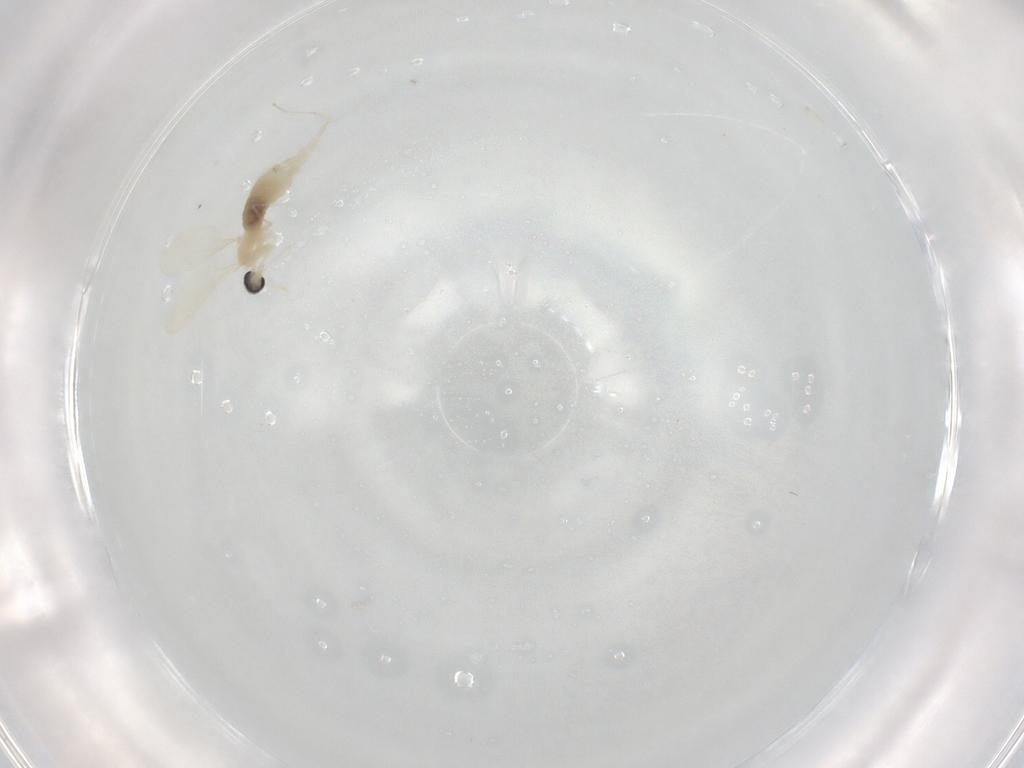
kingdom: Animalia
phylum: Arthropoda
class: Insecta
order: Diptera
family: Cecidomyiidae
